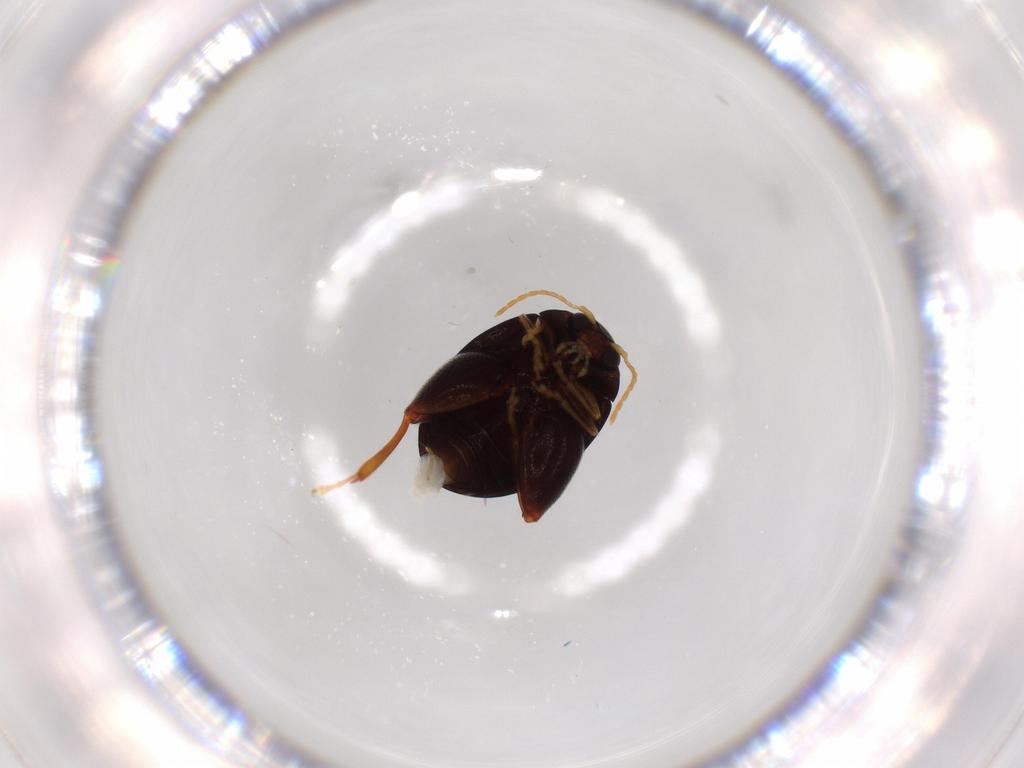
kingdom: Animalia
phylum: Arthropoda
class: Insecta
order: Coleoptera
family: Chrysomelidae
